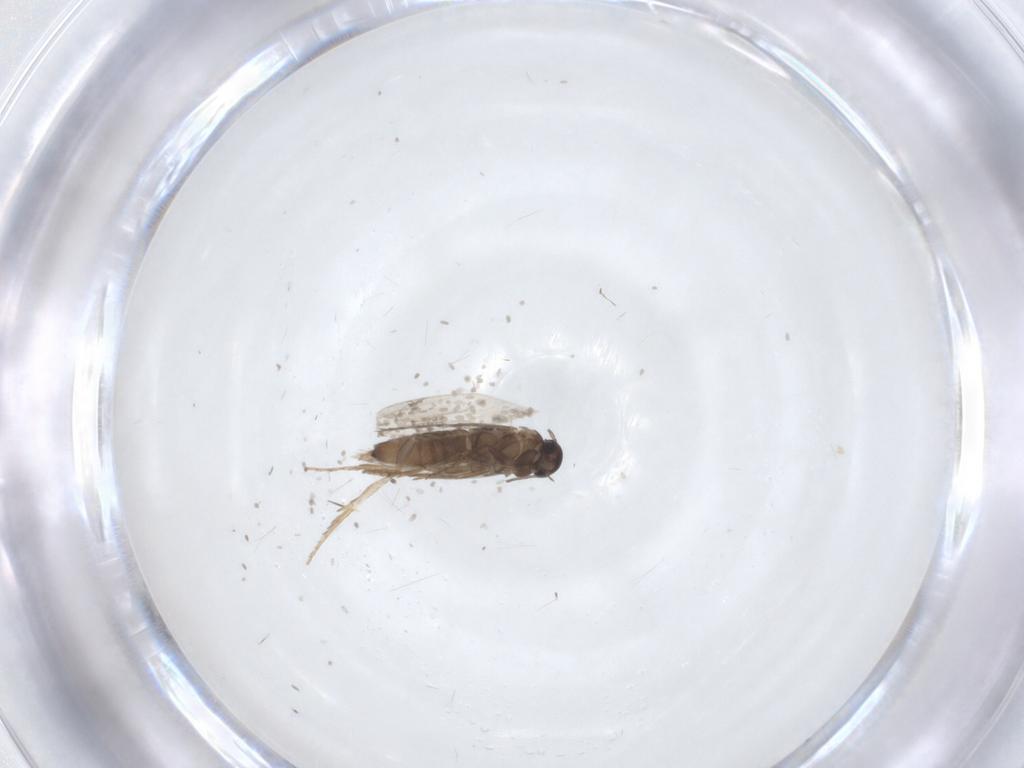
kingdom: Animalia
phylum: Arthropoda
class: Insecta
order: Lepidoptera
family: Heliozelidae
